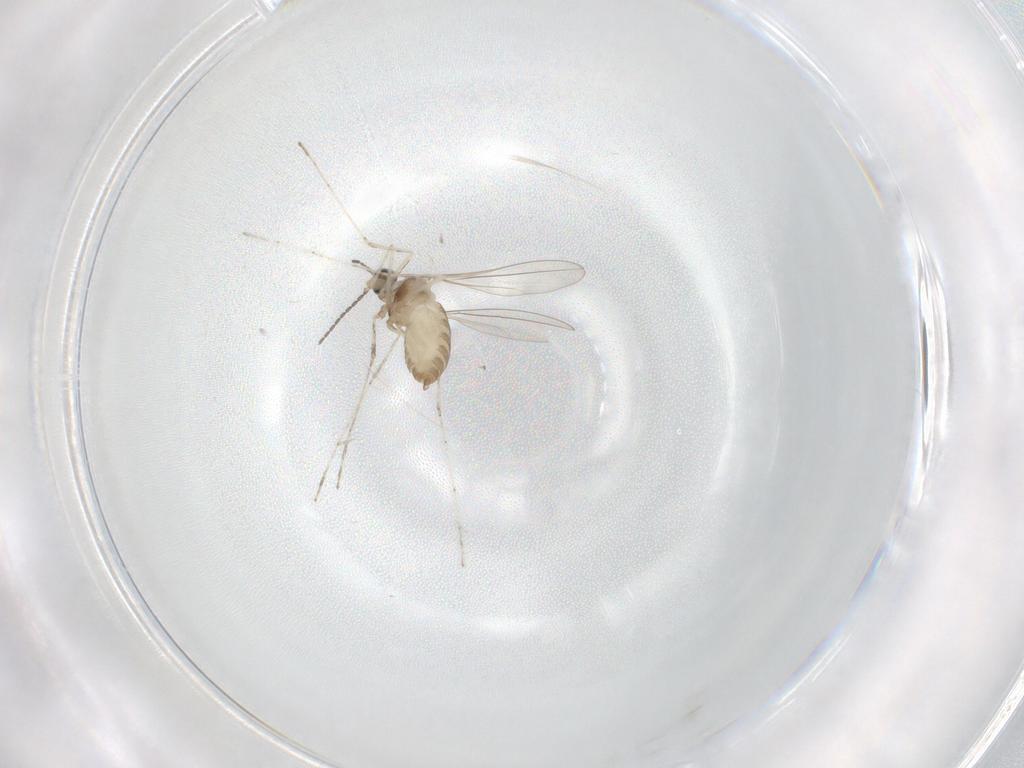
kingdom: Animalia
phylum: Arthropoda
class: Insecta
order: Diptera
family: Cecidomyiidae
